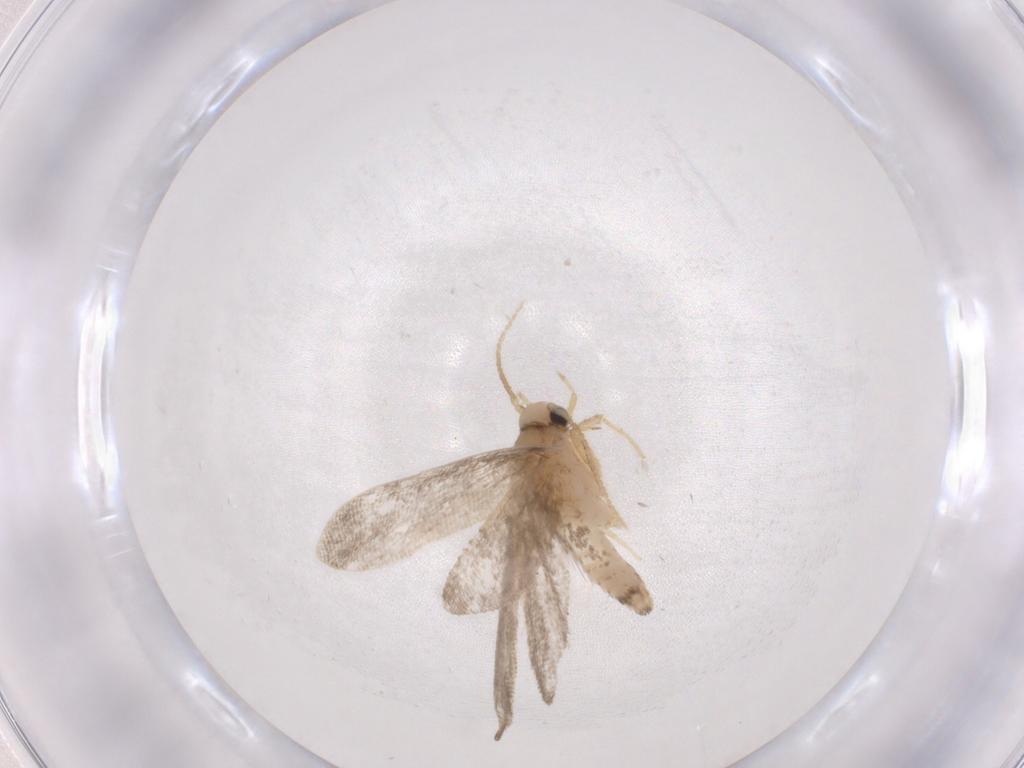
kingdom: Animalia
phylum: Arthropoda
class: Insecta
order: Lepidoptera
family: Psychidae
